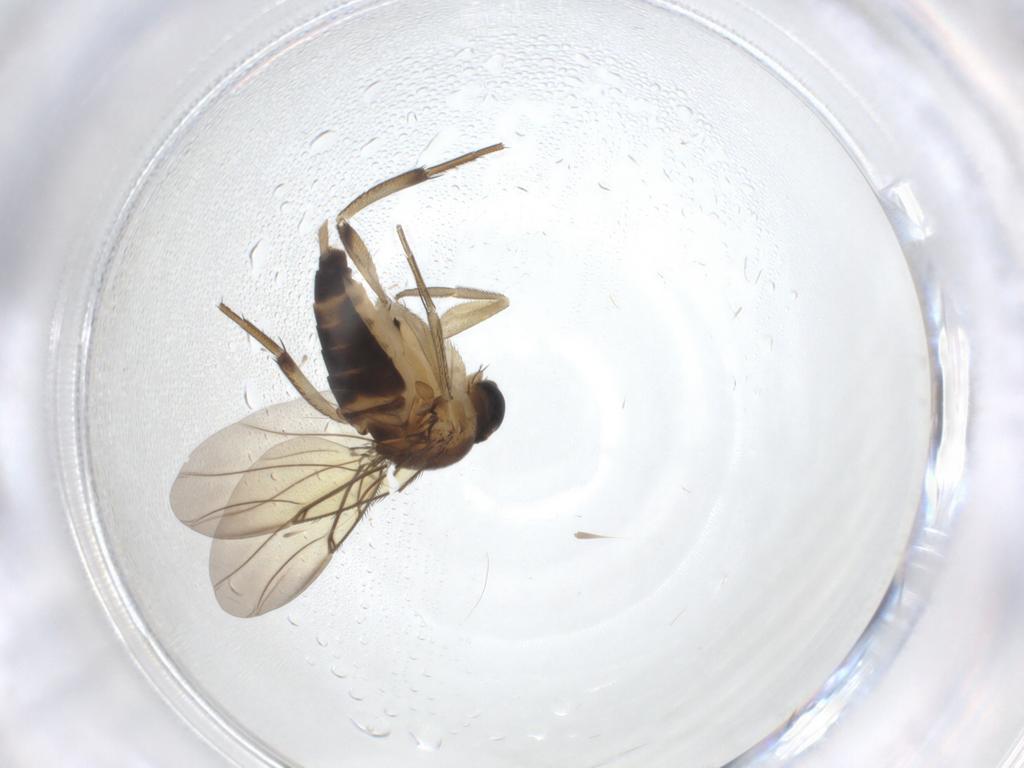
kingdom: Animalia
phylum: Arthropoda
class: Insecta
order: Diptera
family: Phoridae
